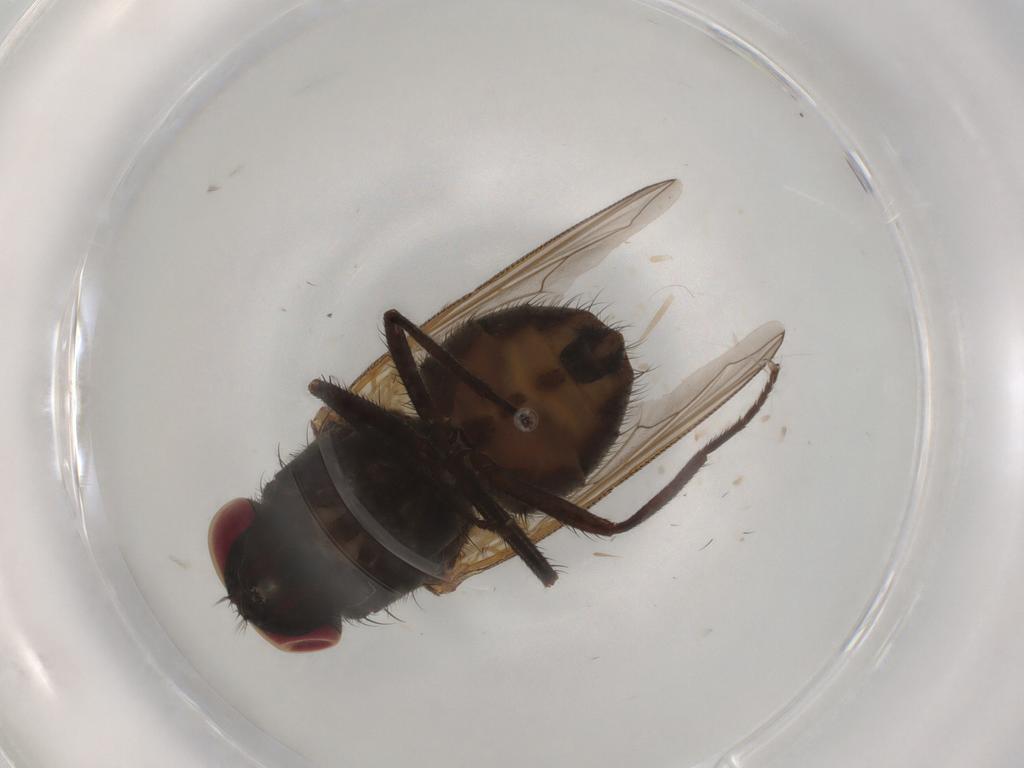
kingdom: Animalia
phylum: Arthropoda
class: Insecta
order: Diptera
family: Muscidae
